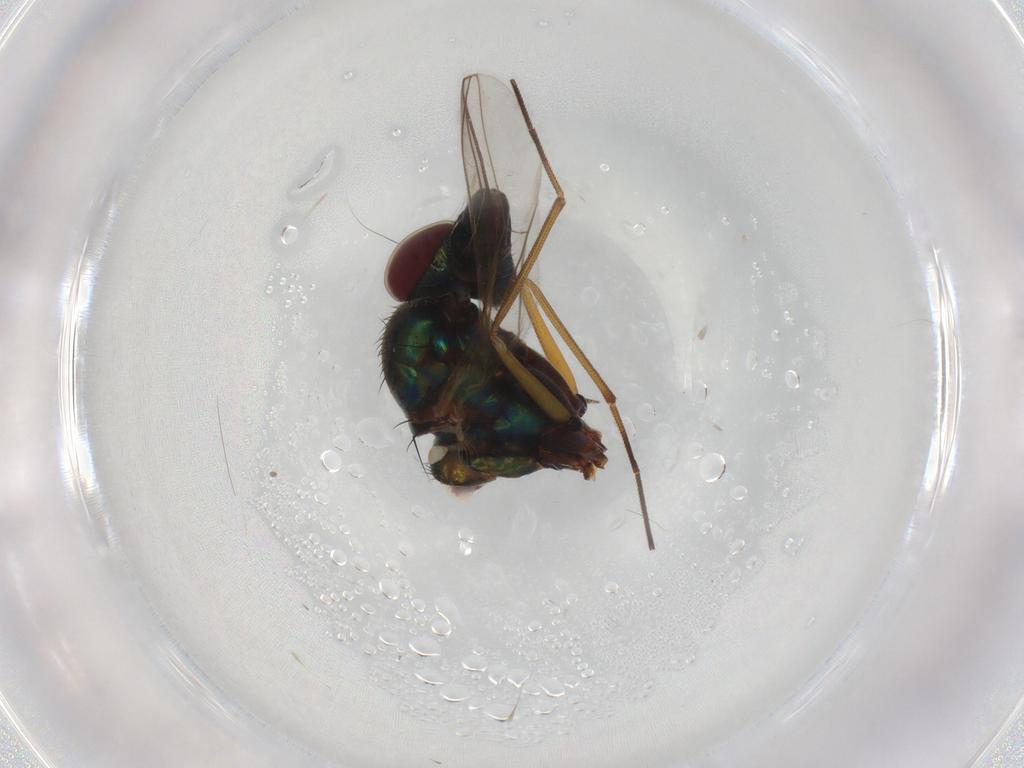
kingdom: Animalia
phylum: Arthropoda
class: Insecta
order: Diptera
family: Dolichopodidae
